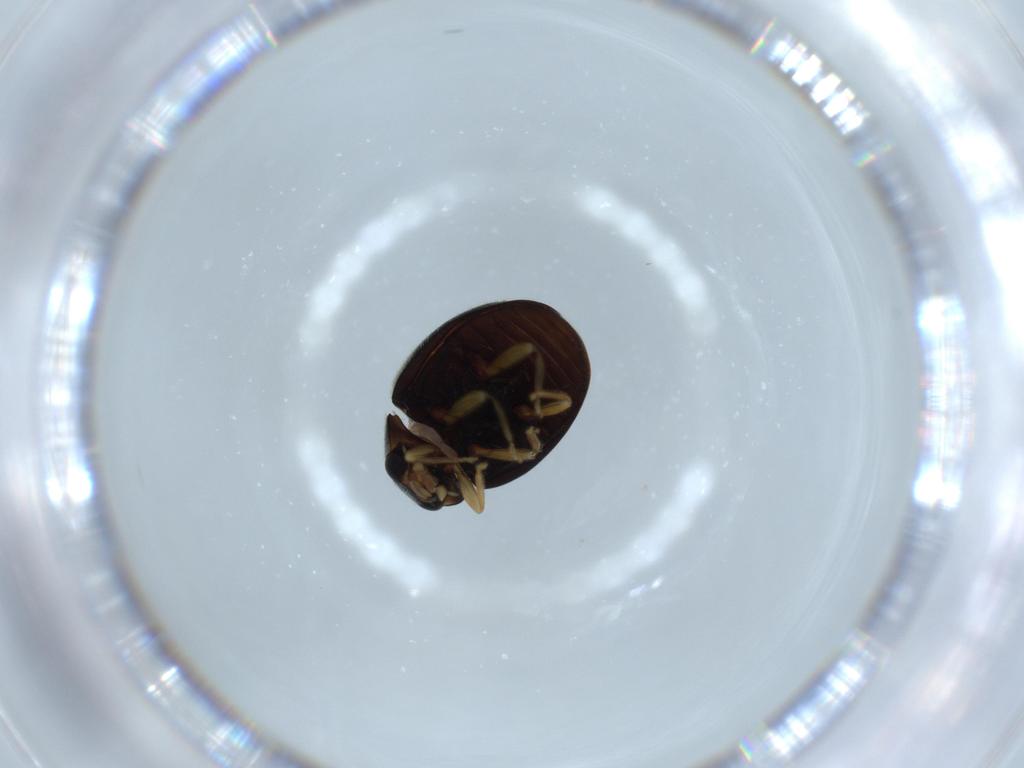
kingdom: Animalia
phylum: Arthropoda
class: Insecta
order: Coleoptera
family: Coccinellidae
